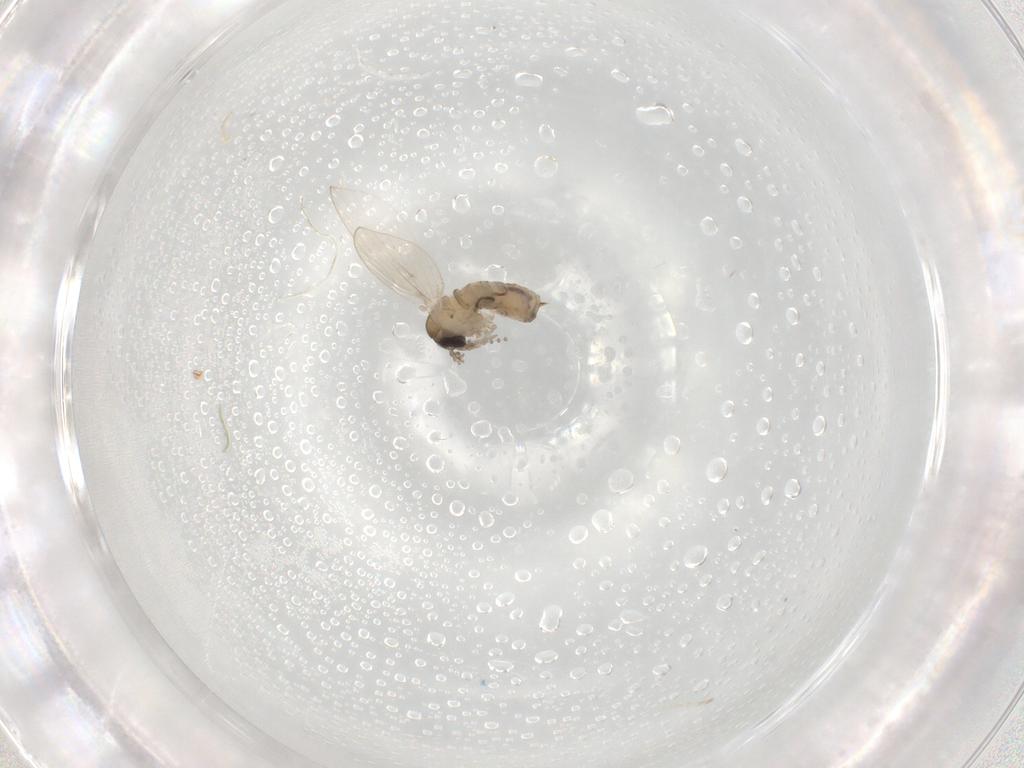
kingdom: Animalia
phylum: Arthropoda
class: Insecta
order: Diptera
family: Psychodidae
